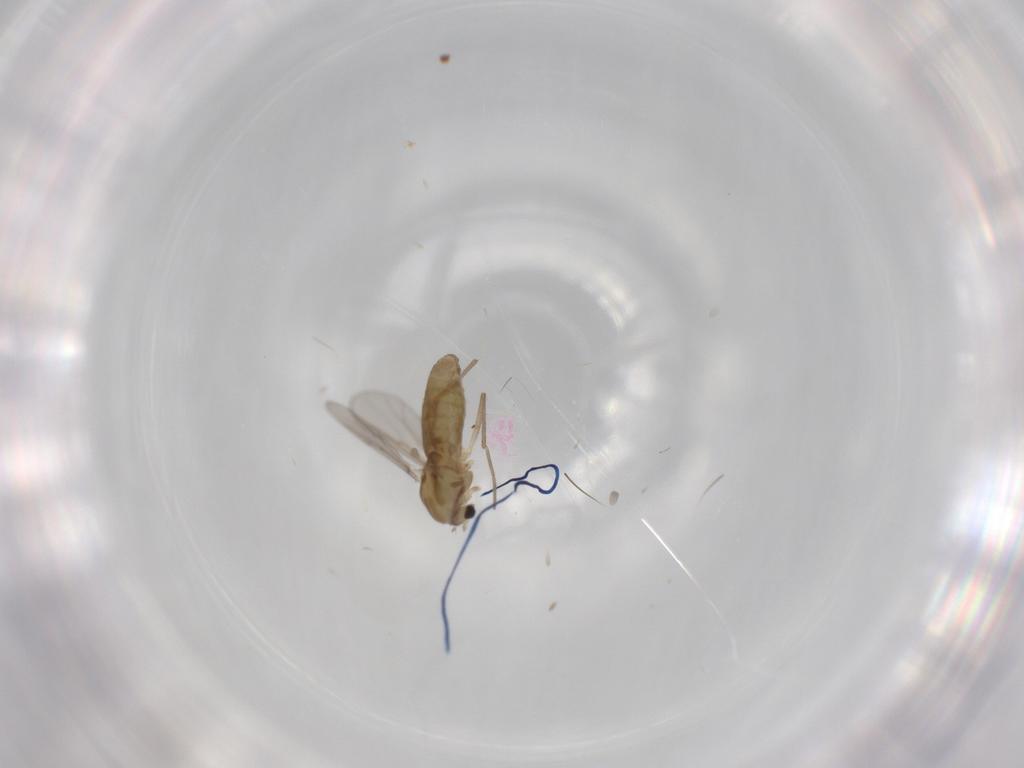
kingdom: Animalia
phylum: Arthropoda
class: Insecta
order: Diptera
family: Chironomidae
